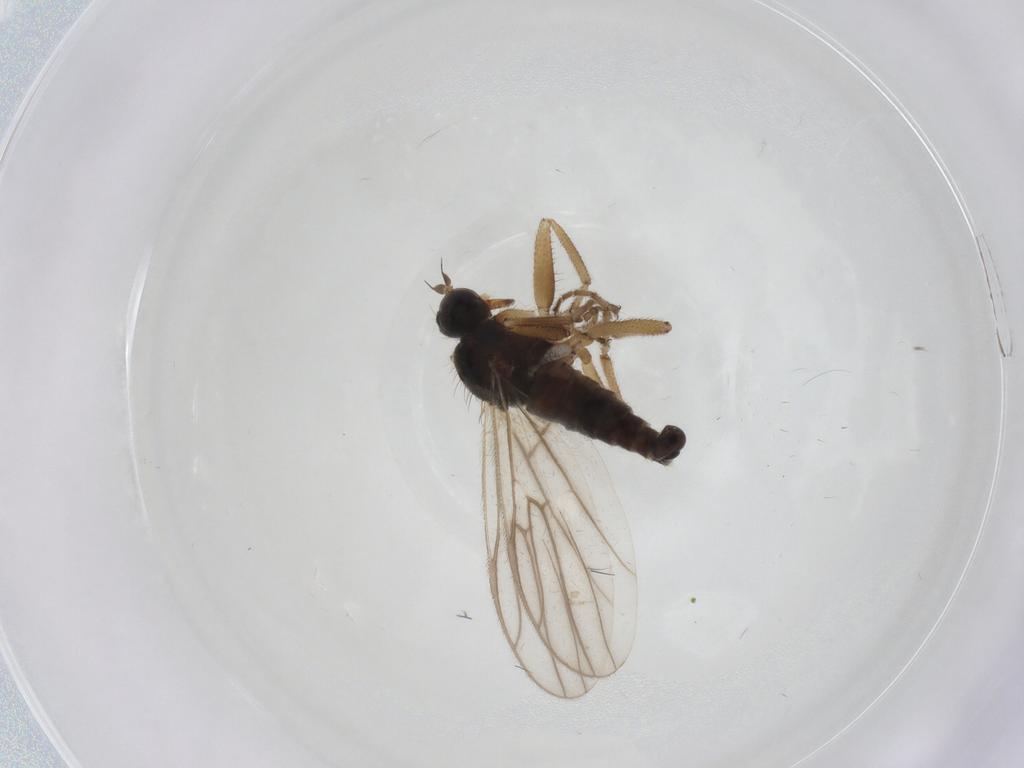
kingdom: Animalia
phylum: Arthropoda
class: Insecta
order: Diptera
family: Hybotidae
